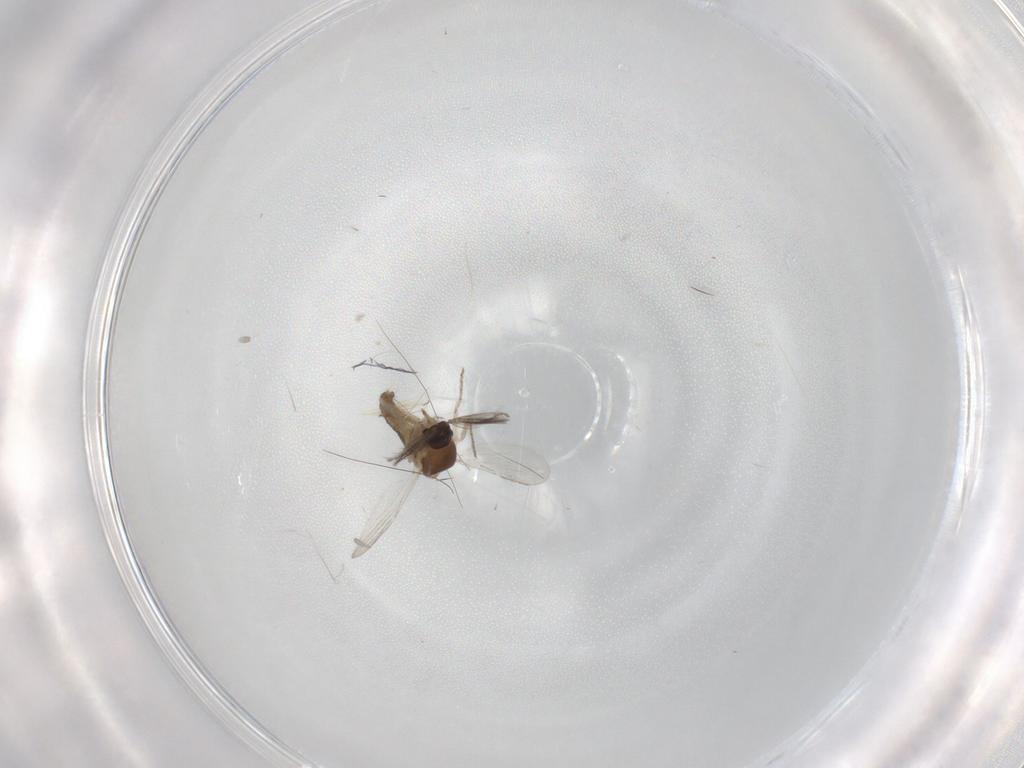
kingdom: Animalia
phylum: Arthropoda
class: Insecta
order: Diptera
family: Ceratopogonidae
